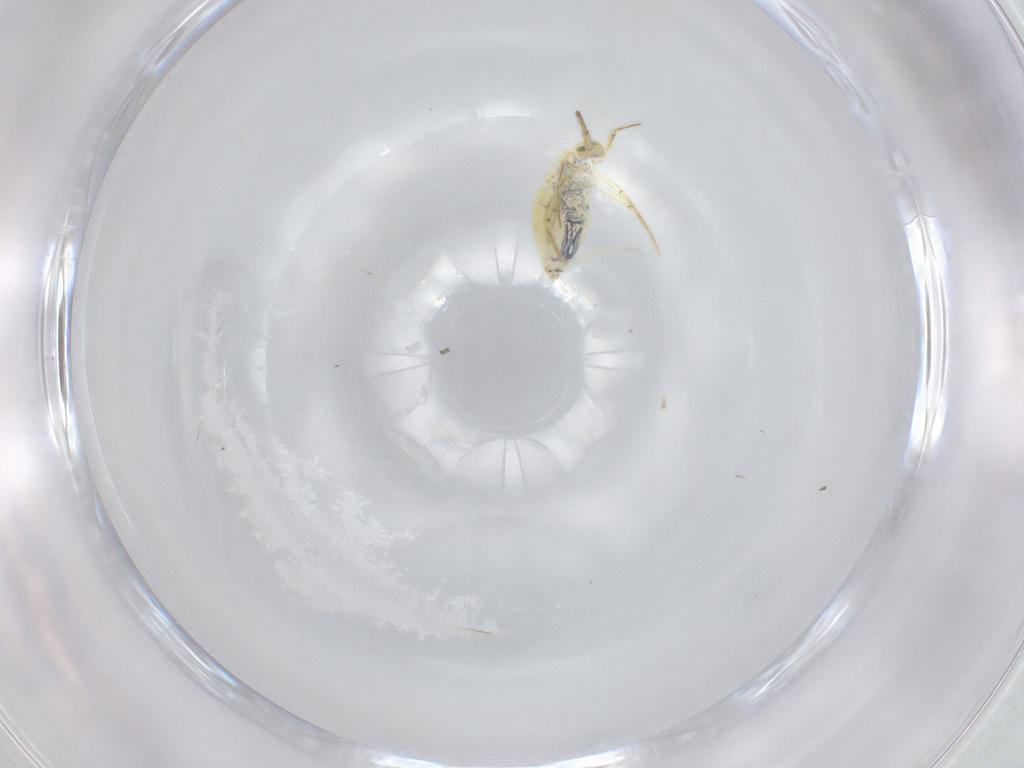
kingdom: Animalia
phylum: Arthropoda
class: Collembola
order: Entomobryomorpha
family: Paronellidae
